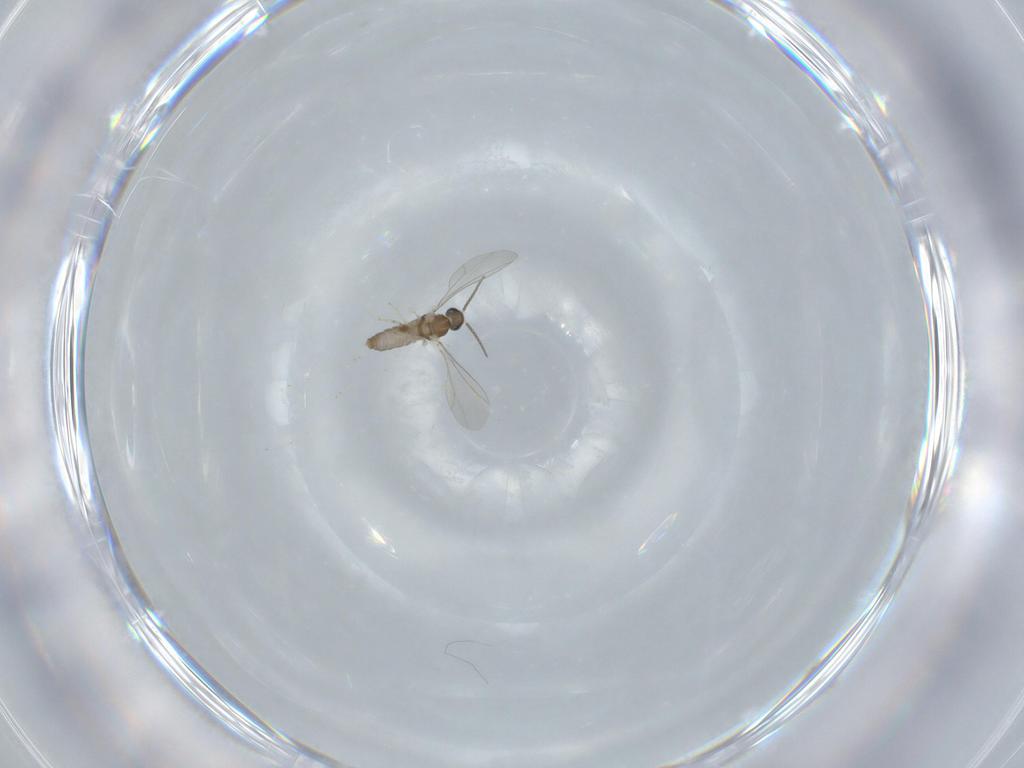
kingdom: Animalia
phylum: Arthropoda
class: Insecta
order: Diptera
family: Cecidomyiidae
